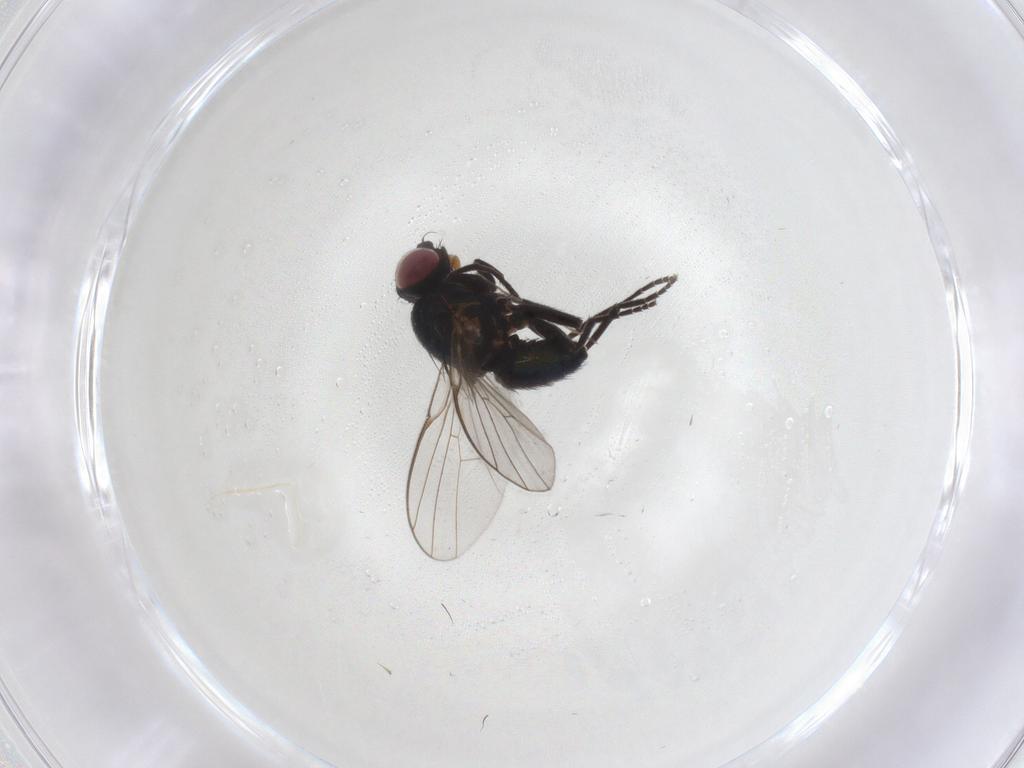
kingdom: Animalia
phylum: Arthropoda
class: Insecta
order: Diptera
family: Agromyzidae
